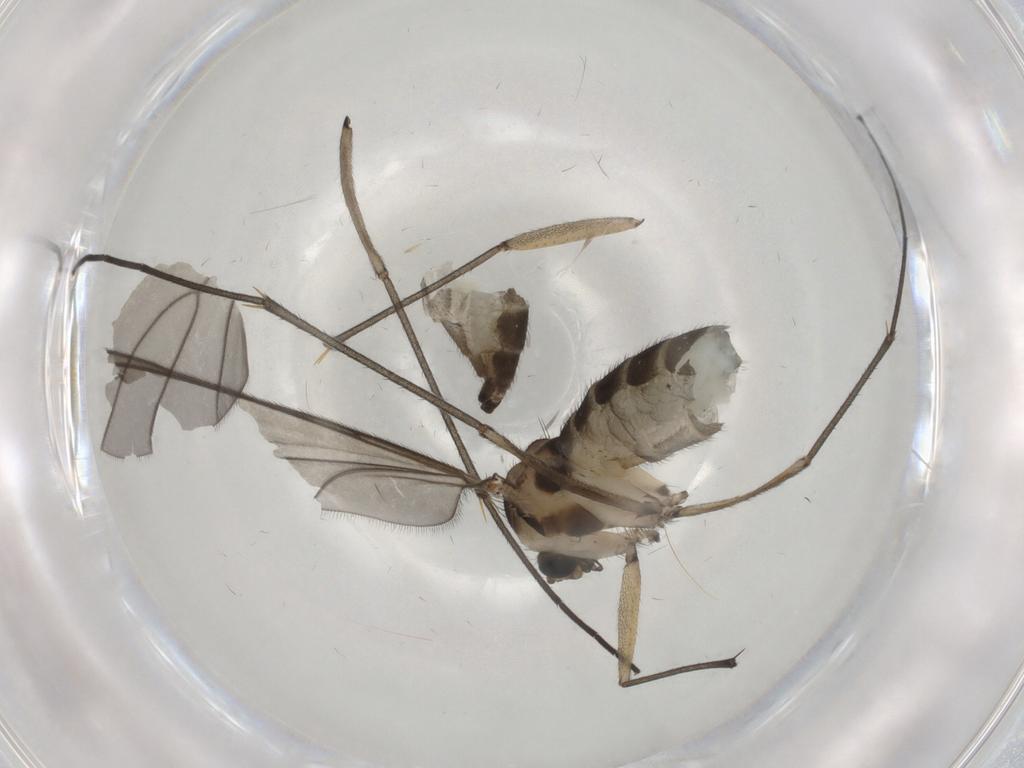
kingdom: Animalia
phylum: Arthropoda
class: Insecta
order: Diptera
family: Sciaridae
